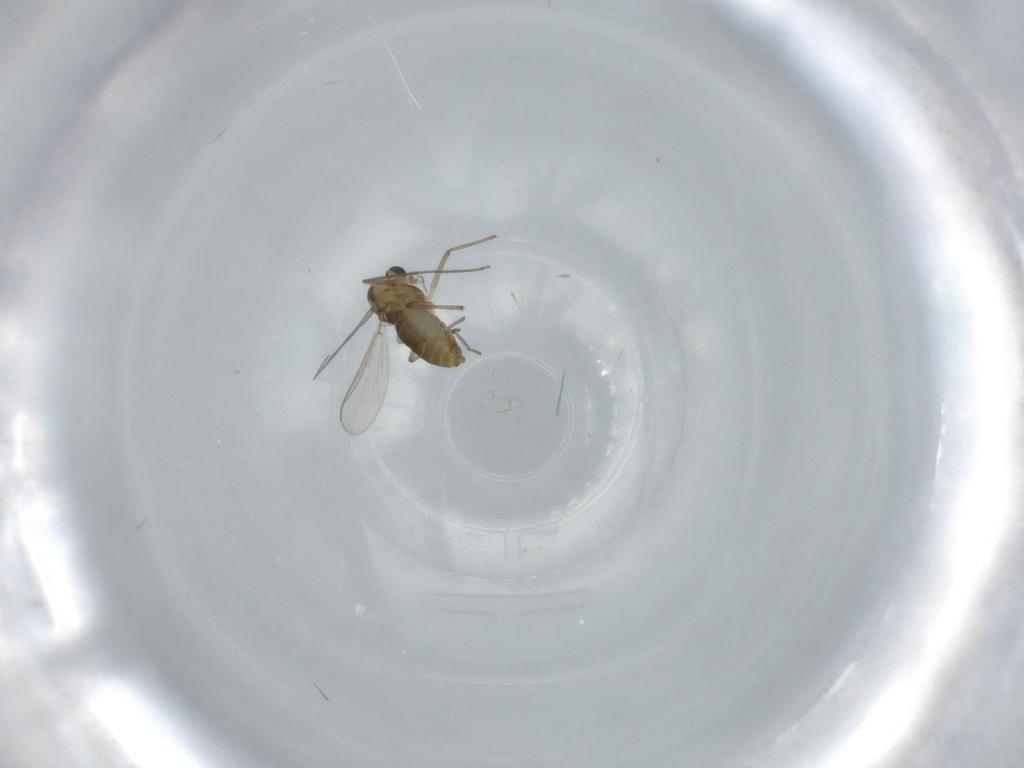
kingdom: Animalia
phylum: Arthropoda
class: Insecta
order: Diptera
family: Chironomidae
